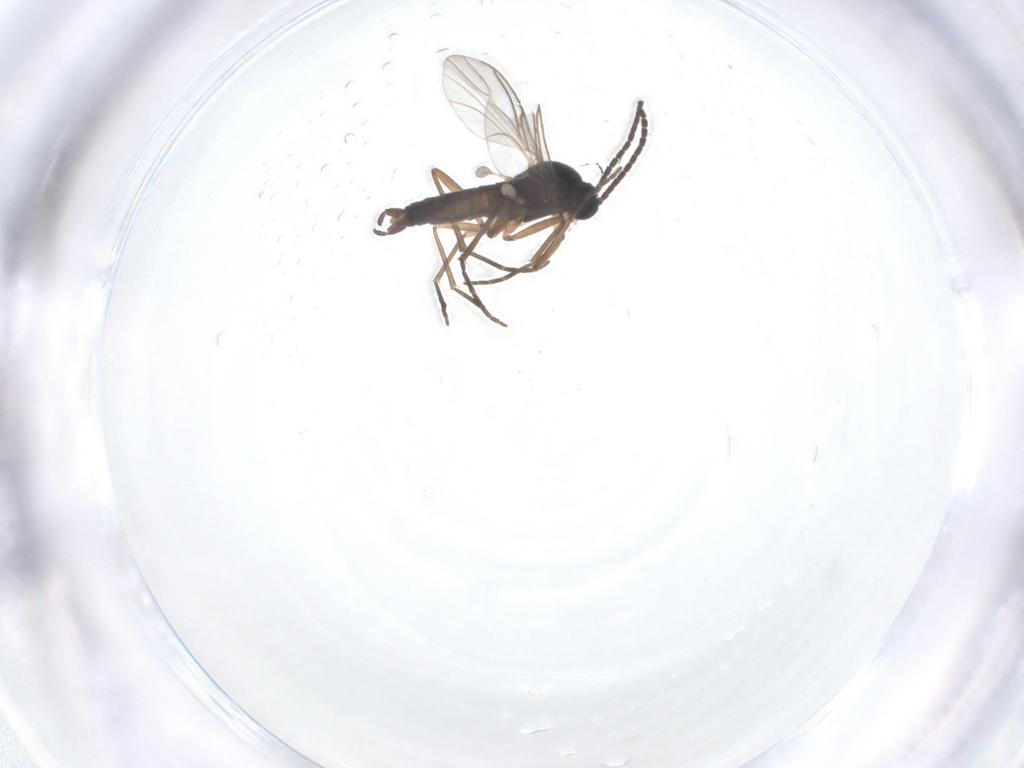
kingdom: Animalia
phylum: Arthropoda
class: Insecta
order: Diptera
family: Sciaridae
